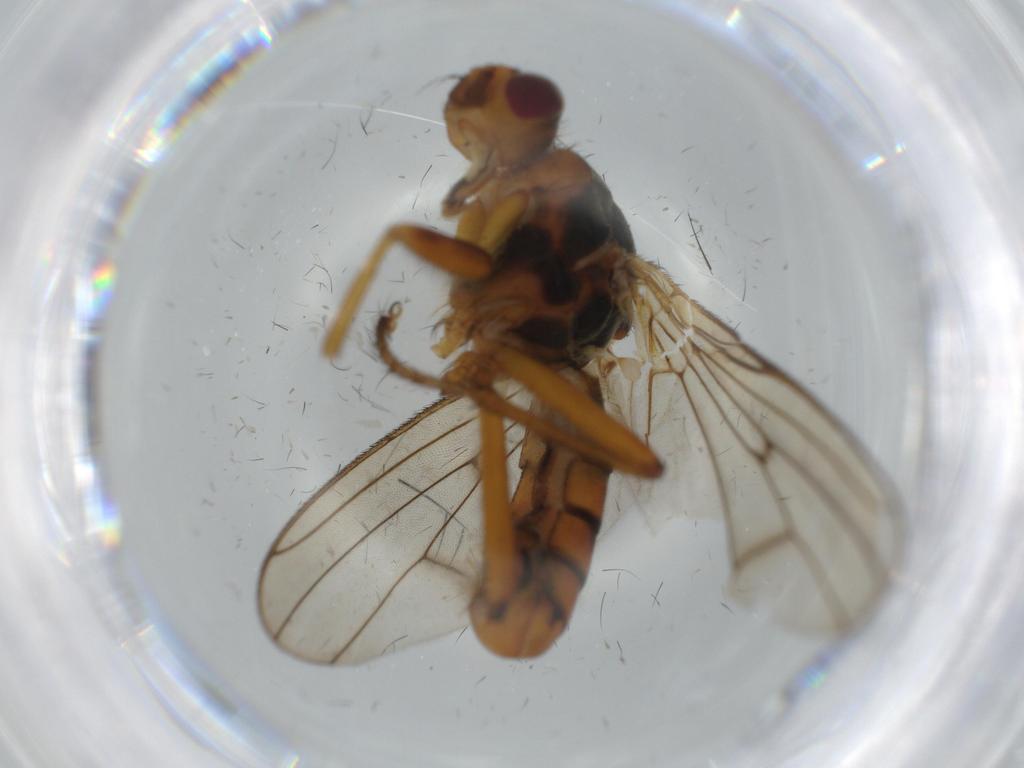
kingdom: Animalia
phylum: Arthropoda
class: Insecta
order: Diptera
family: Scathophagidae
